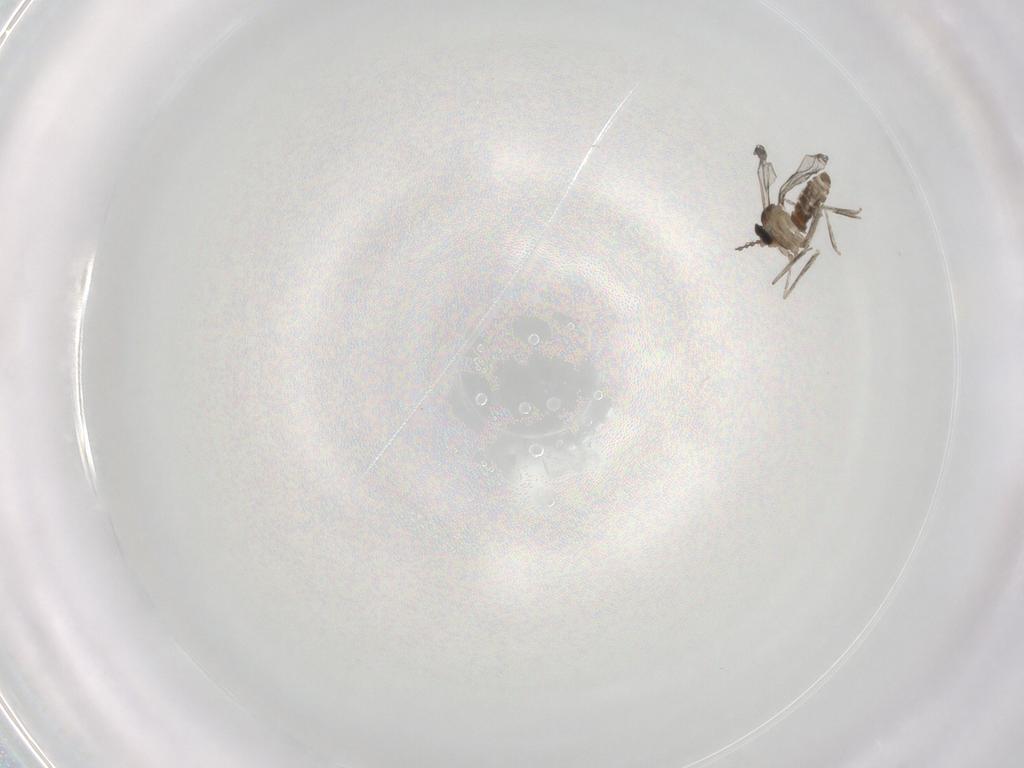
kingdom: Animalia
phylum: Arthropoda
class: Insecta
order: Diptera
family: Cecidomyiidae
